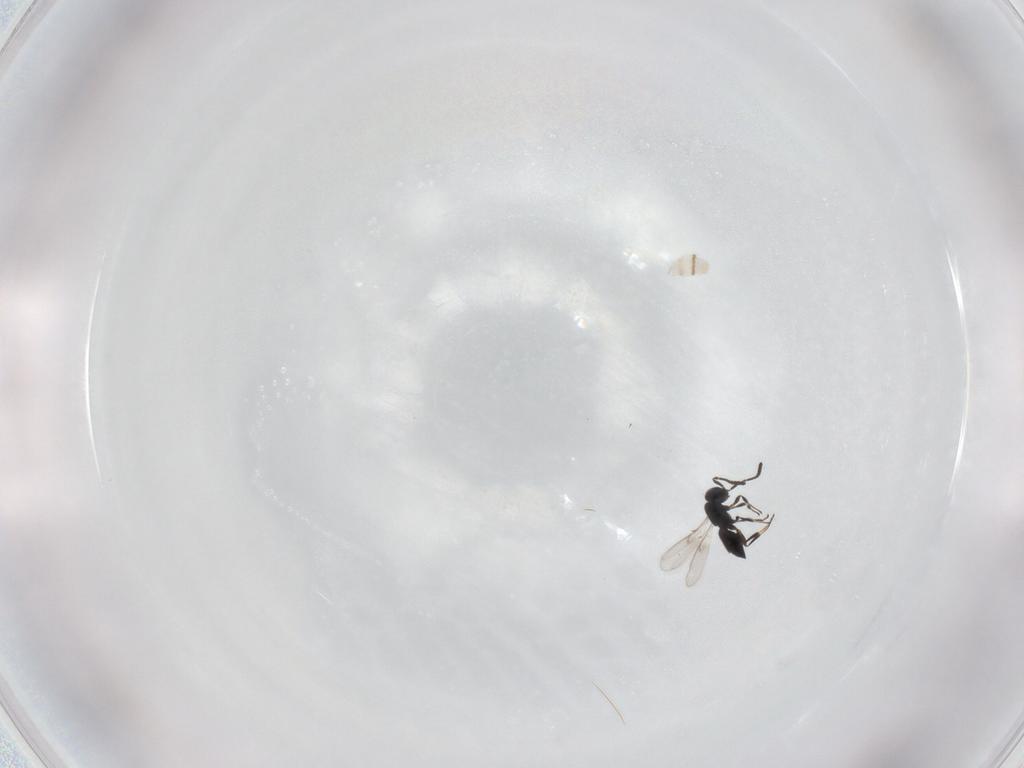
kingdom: Animalia
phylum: Arthropoda
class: Insecta
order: Hymenoptera
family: Scelionidae
